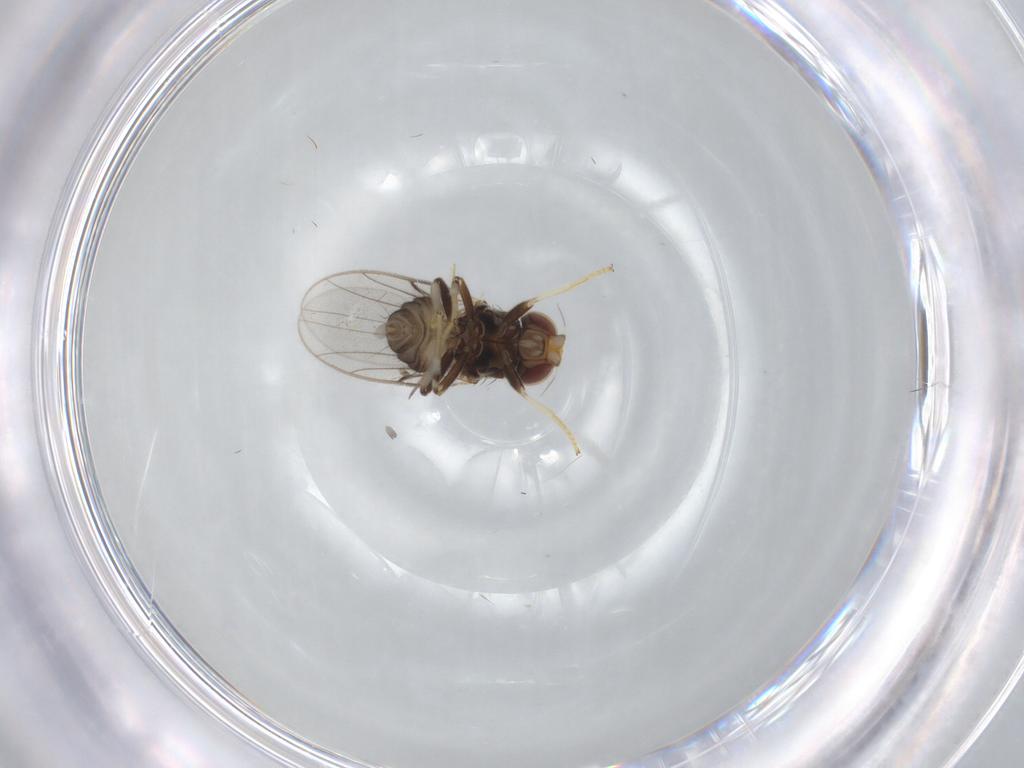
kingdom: Animalia
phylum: Arthropoda
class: Insecta
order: Diptera
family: Chloropidae
